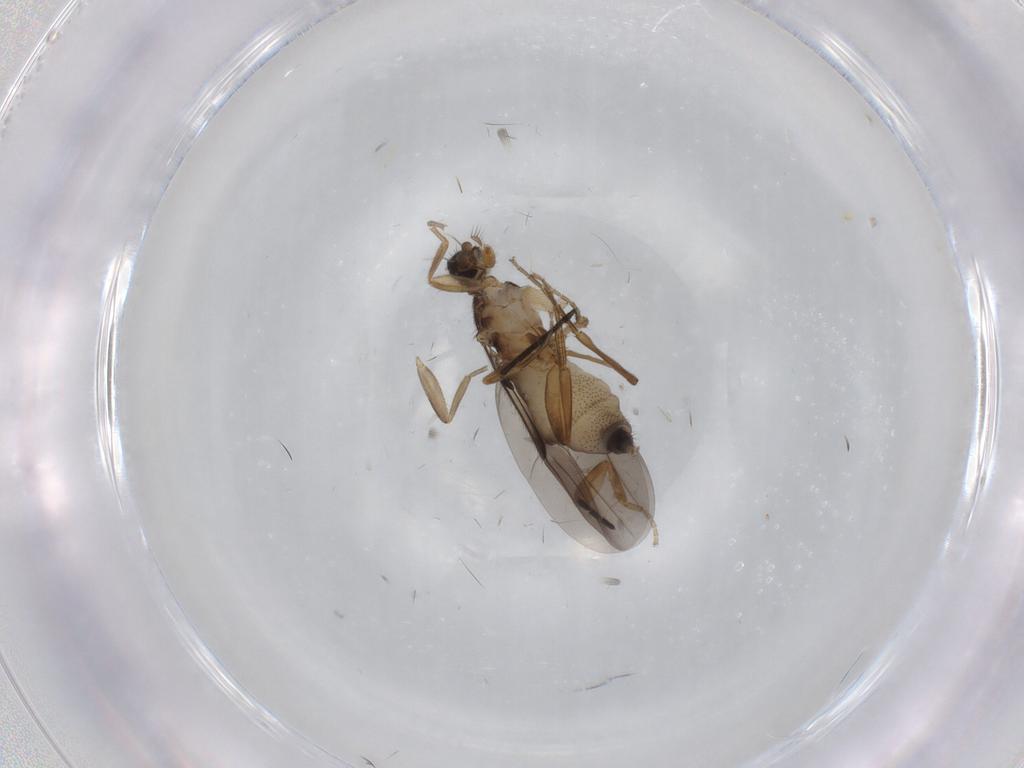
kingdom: Animalia
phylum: Arthropoda
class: Insecta
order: Diptera
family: Phoridae
